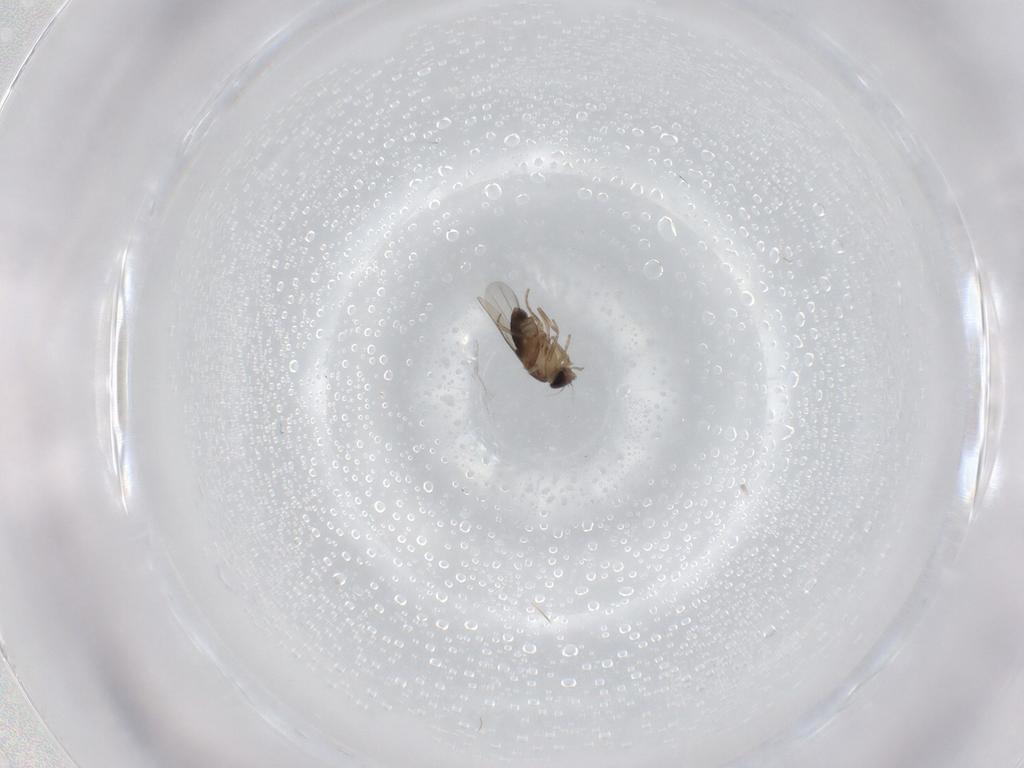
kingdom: Animalia
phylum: Arthropoda
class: Insecta
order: Diptera
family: Phoridae
